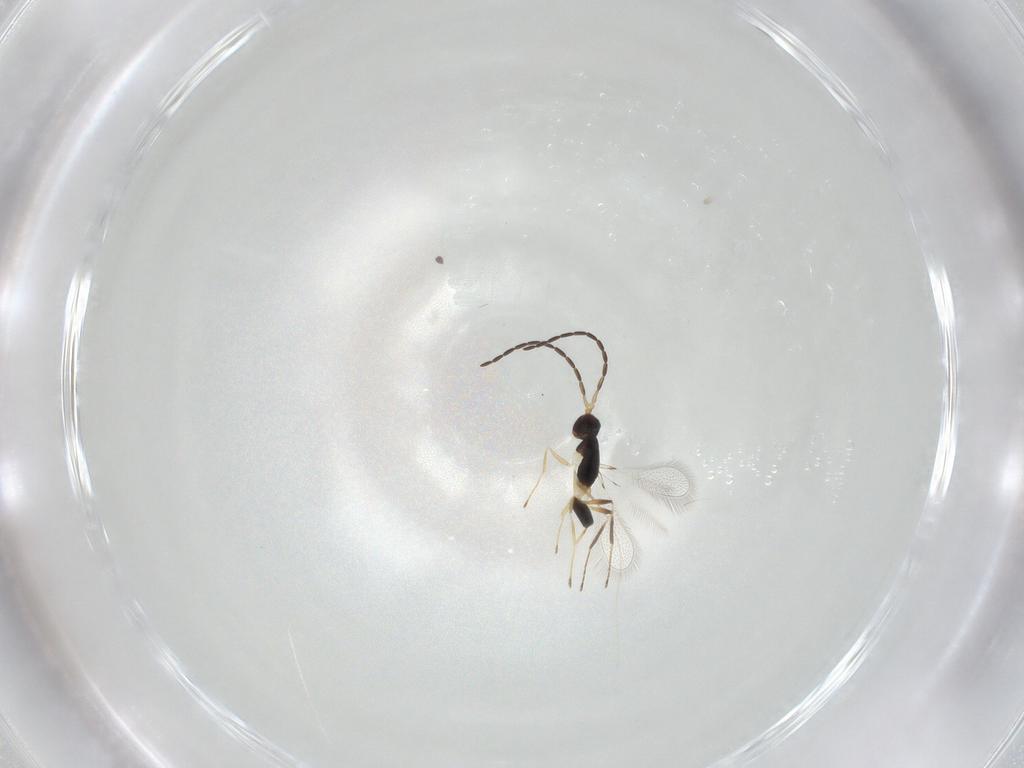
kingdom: Animalia
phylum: Arthropoda
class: Insecta
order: Hymenoptera
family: Mymaridae
